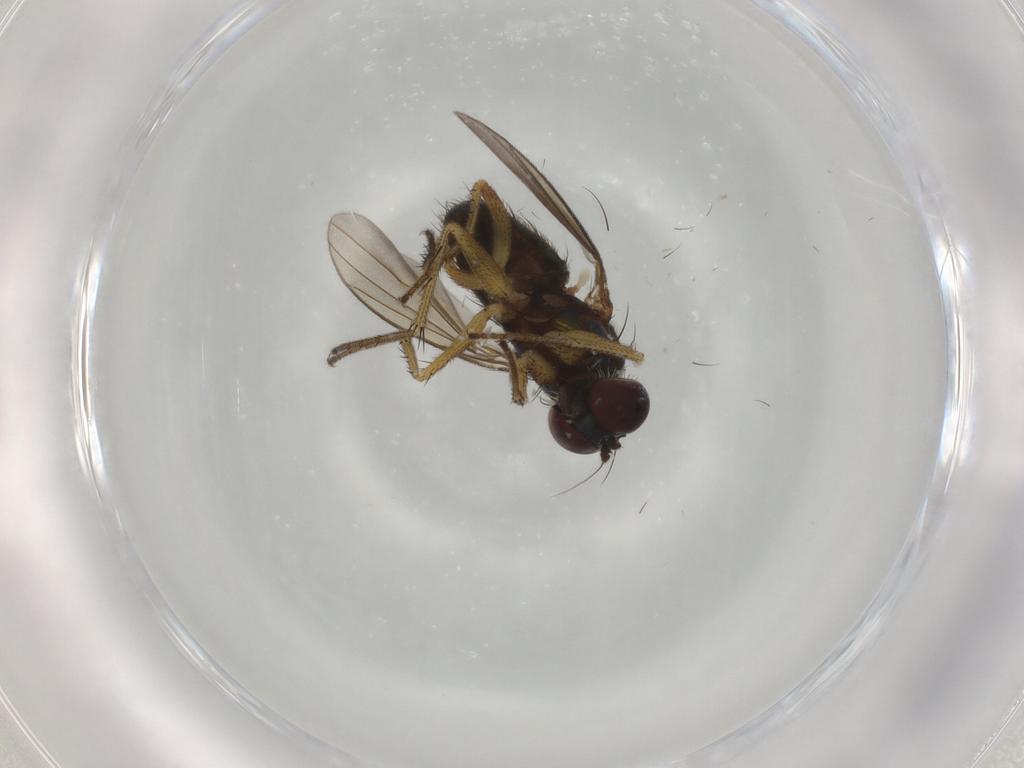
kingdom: Animalia
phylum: Arthropoda
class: Insecta
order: Diptera
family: Dolichopodidae
